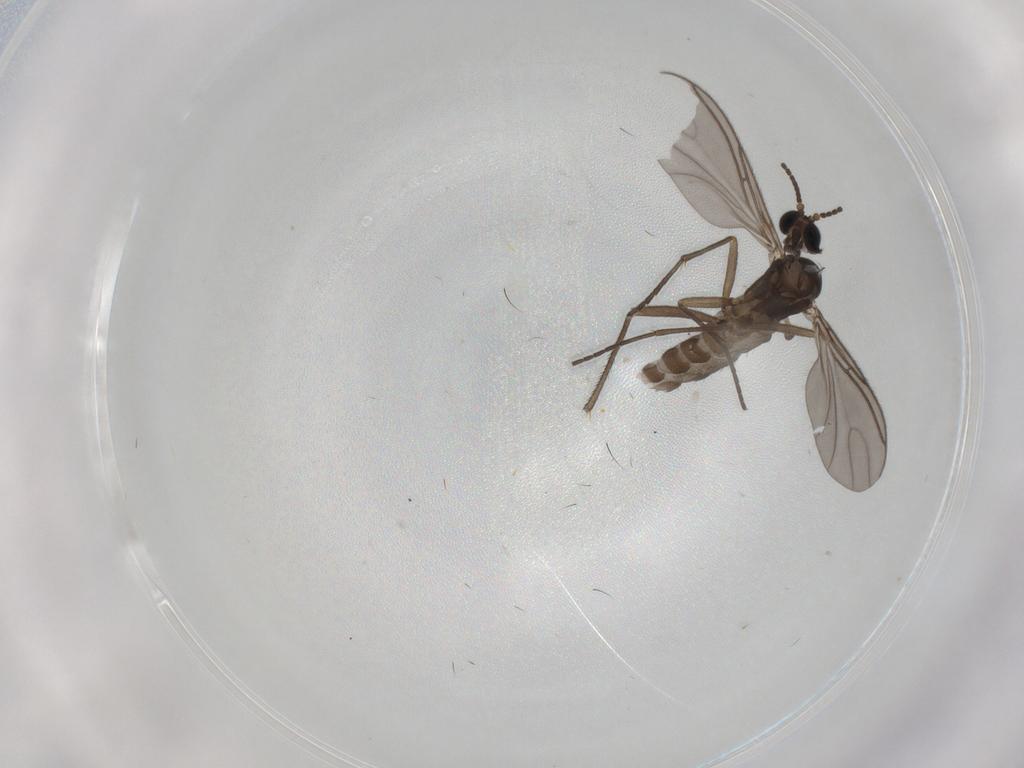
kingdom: Animalia
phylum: Arthropoda
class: Insecta
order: Diptera
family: Sciaridae
